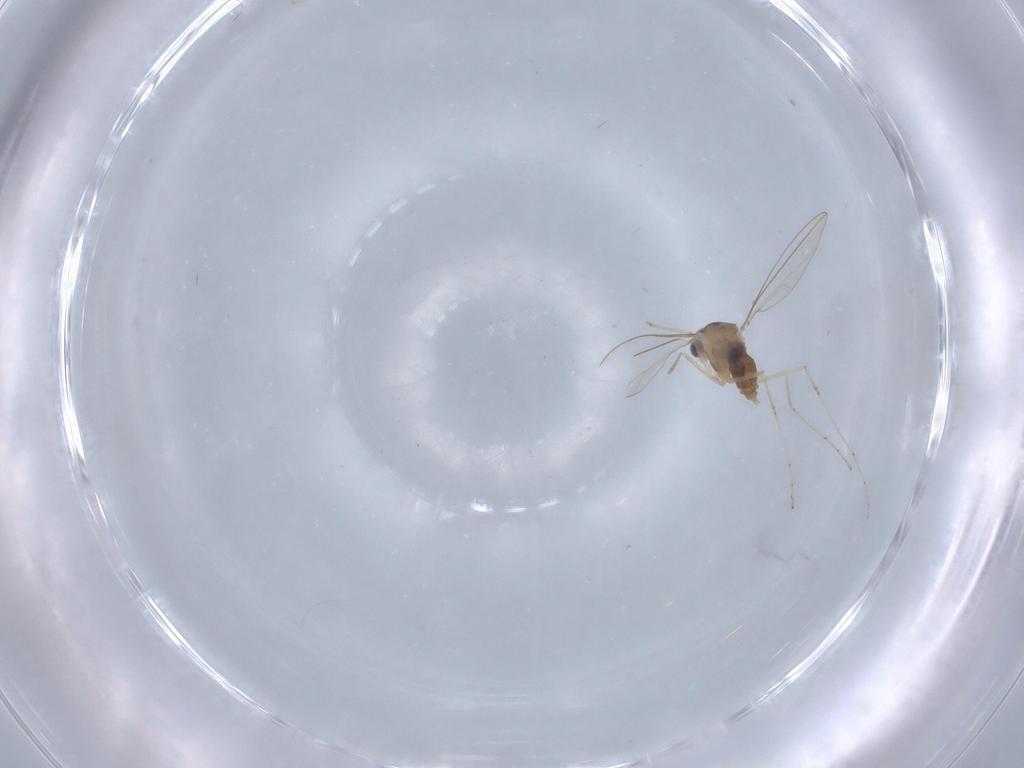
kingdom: Animalia
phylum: Arthropoda
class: Insecta
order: Diptera
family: Cecidomyiidae
